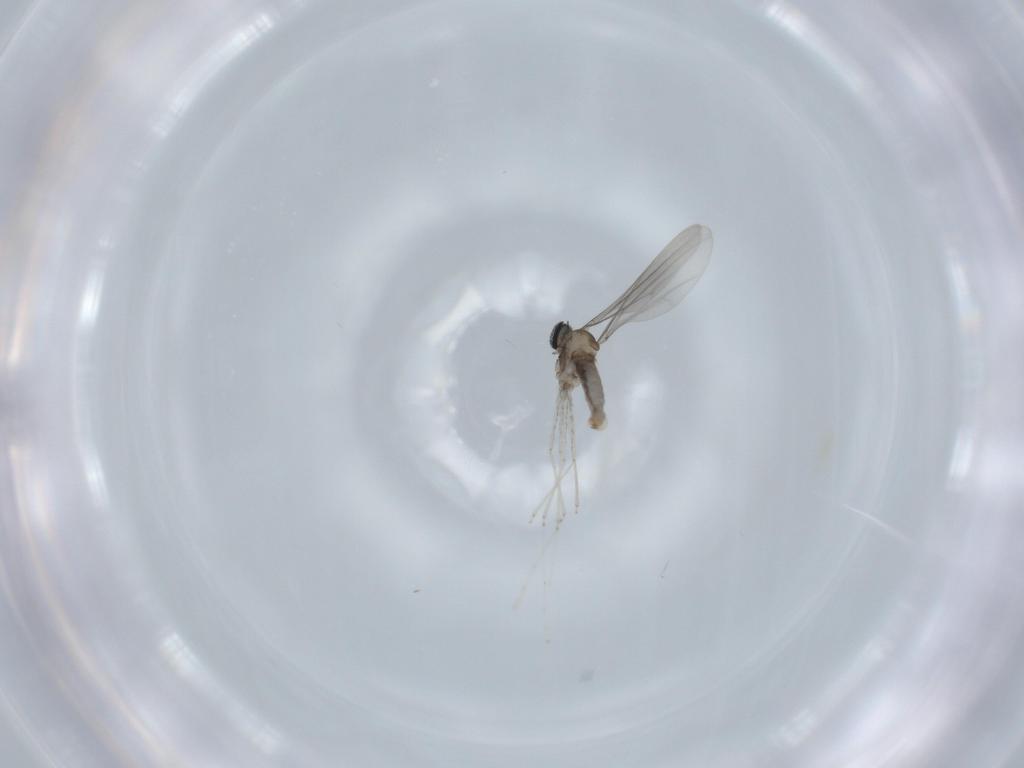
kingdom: Animalia
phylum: Arthropoda
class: Insecta
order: Diptera
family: Cecidomyiidae
